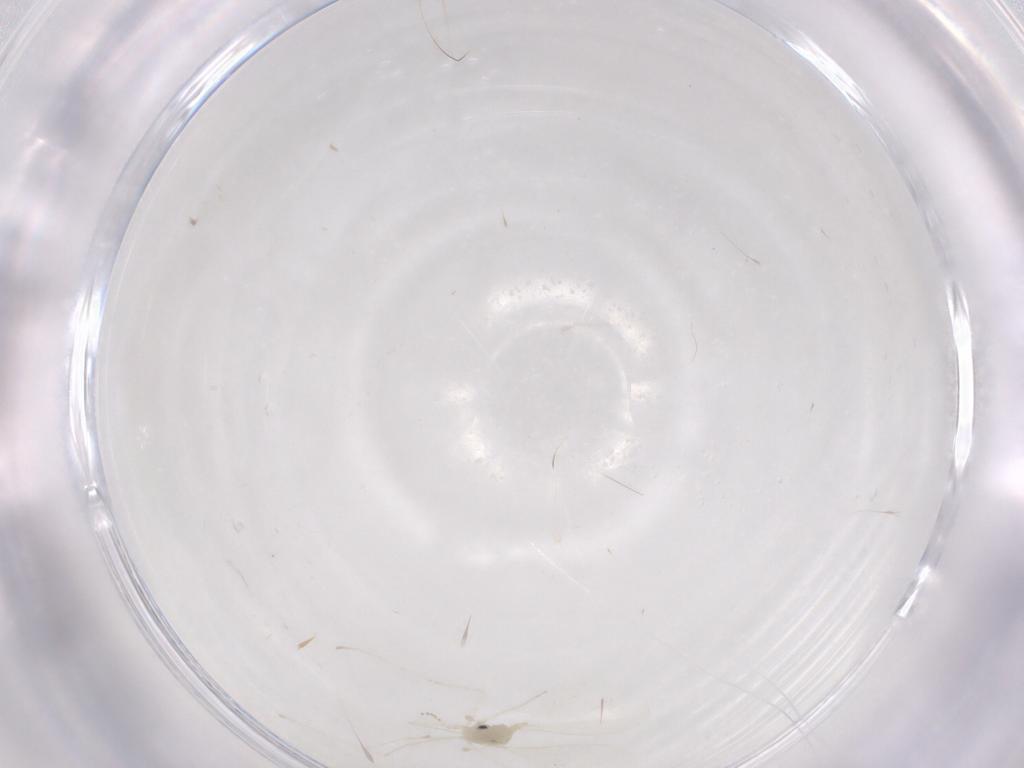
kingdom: Animalia
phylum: Arthropoda
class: Insecta
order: Diptera
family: Cecidomyiidae
